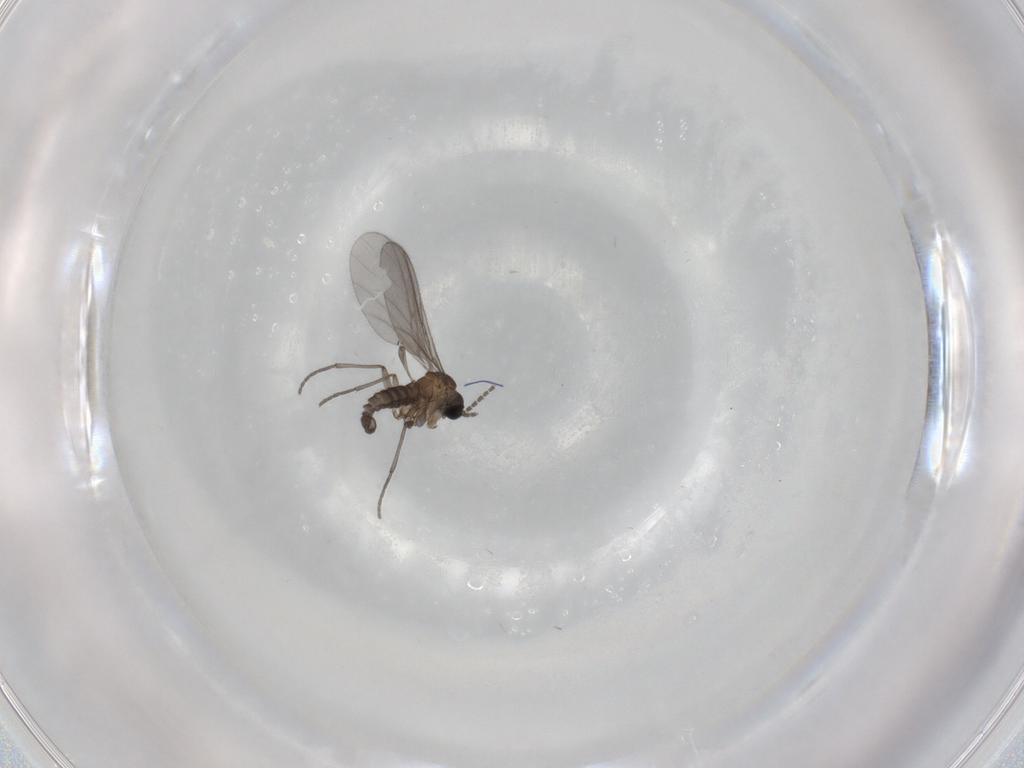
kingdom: Animalia
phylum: Arthropoda
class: Insecta
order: Diptera
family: Sciaridae
